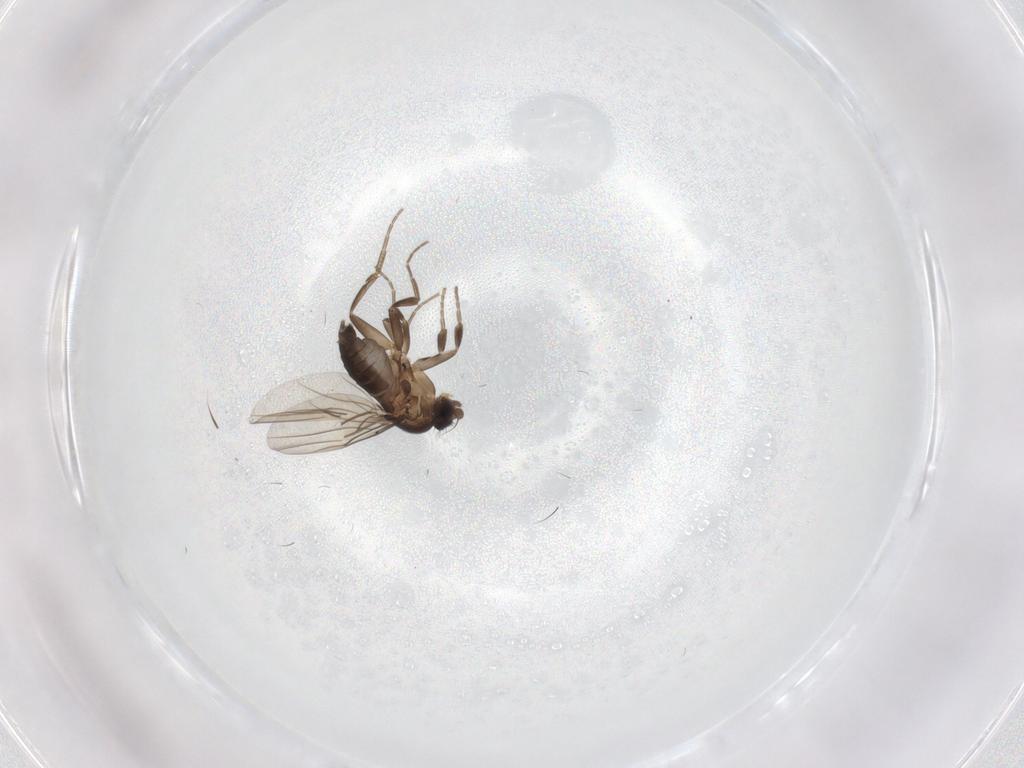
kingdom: Animalia
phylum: Arthropoda
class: Insecta
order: Diptera
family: Phoridae
